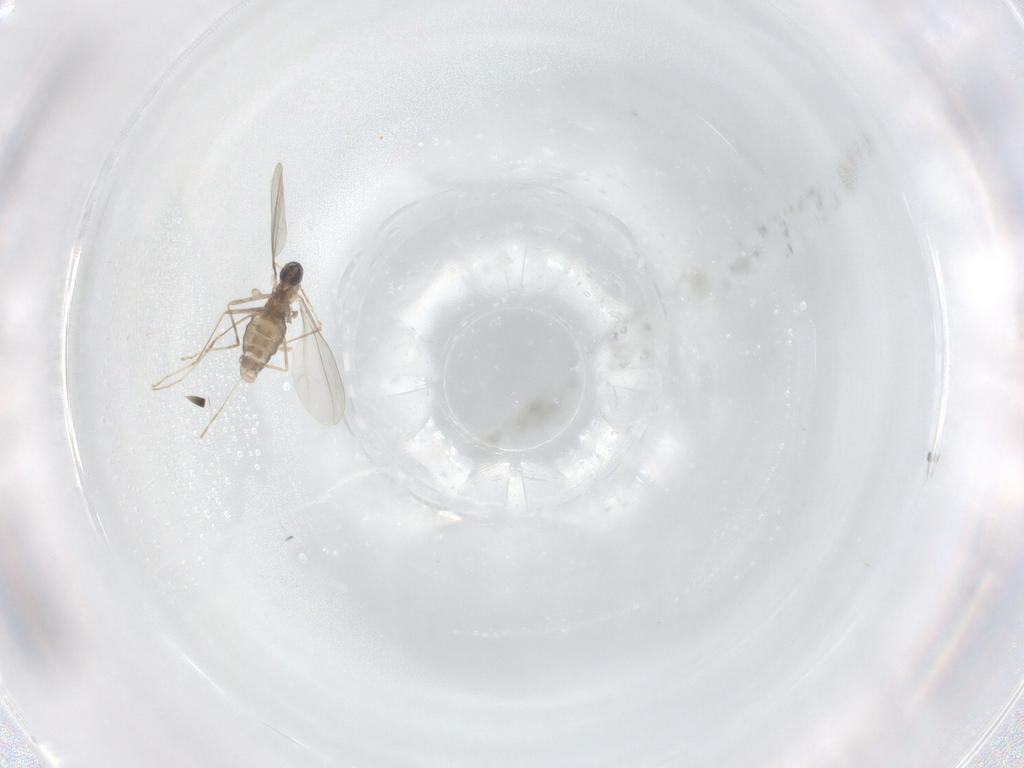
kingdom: Animalia
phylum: Arthropoda
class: Insecta
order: Diptera
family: Cecidomyiidae
